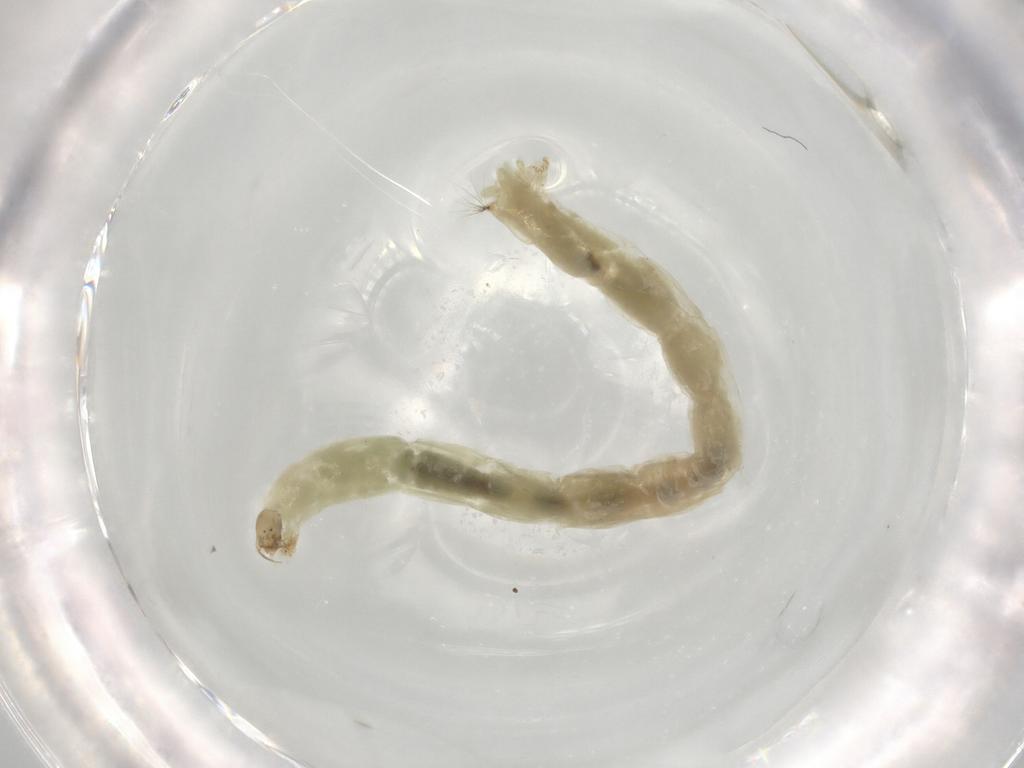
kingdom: Animalia
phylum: Arthropoda
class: Insecta
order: Diptera
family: Chironomidae
